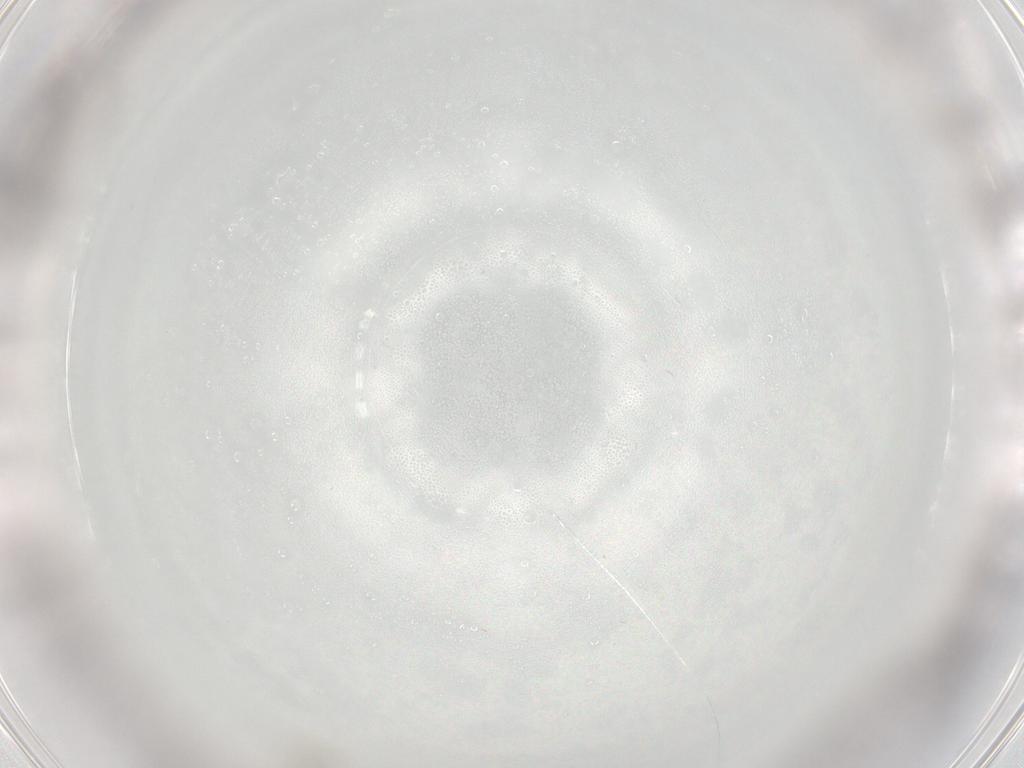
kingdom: Animalia
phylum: Arthropoda
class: Insecta
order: Diptera
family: Cecidomyiidae
